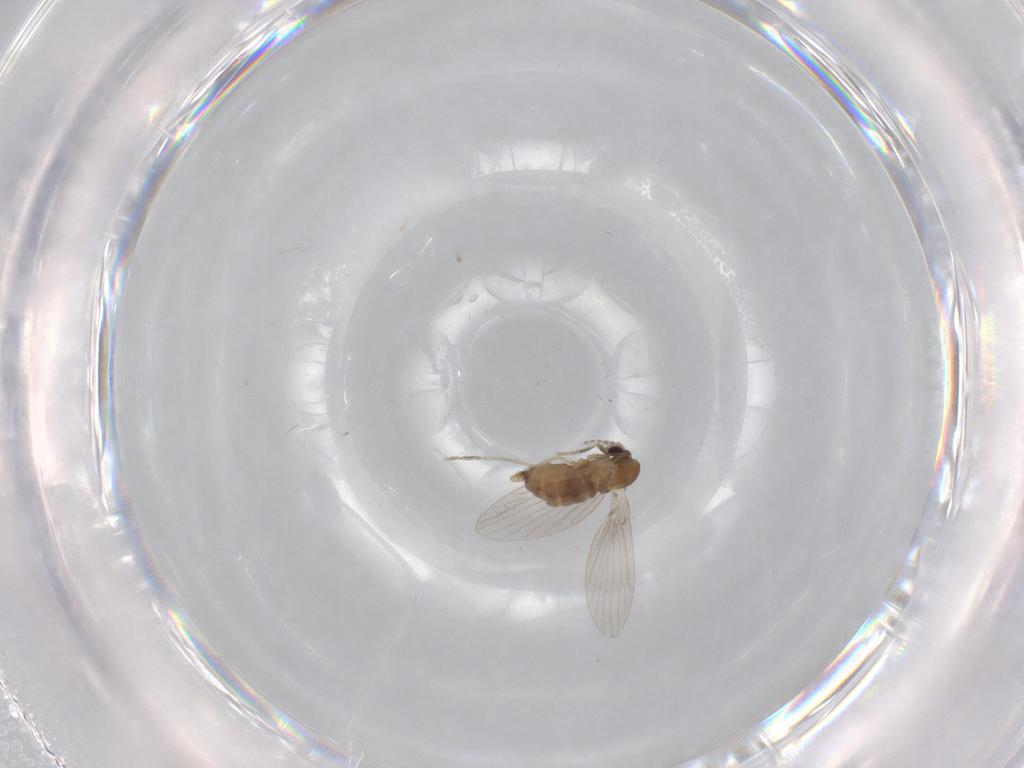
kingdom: Animalia
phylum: Arthropoda
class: Insecta
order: Diptera
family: Psychodidae
